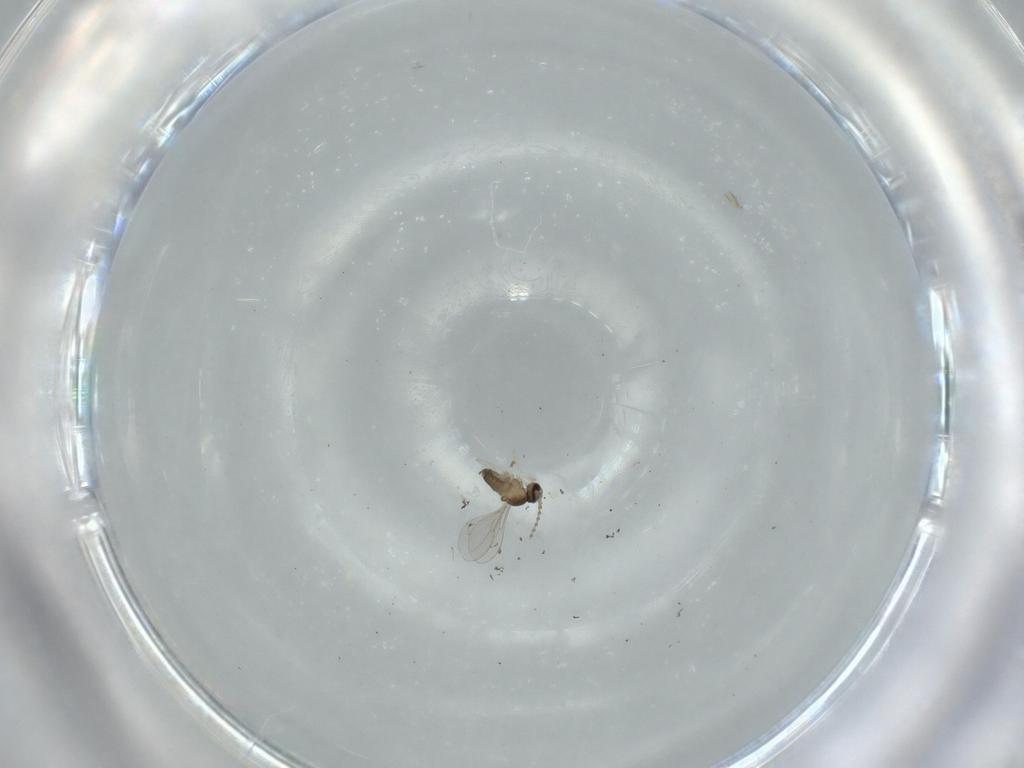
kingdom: Animalia
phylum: Arthropoda
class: Insecta
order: Diptera
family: Cecidomyiidae
